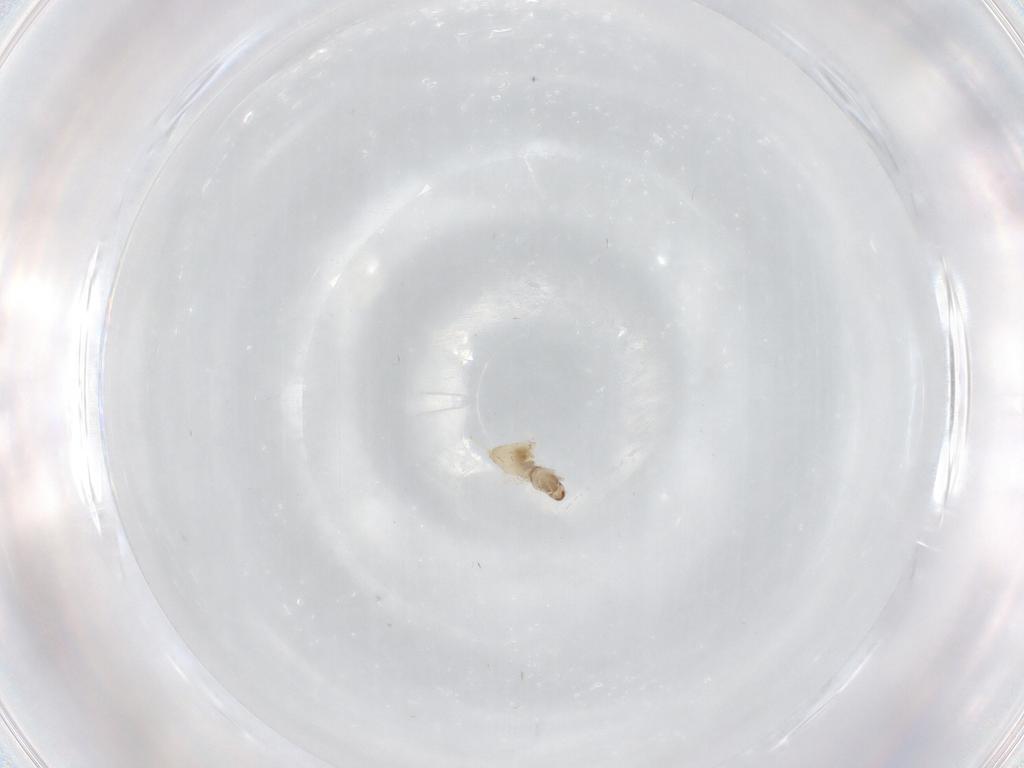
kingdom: Animalia
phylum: Arthropoda
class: Insecta
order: Diptera
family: Cecidomyiidae
